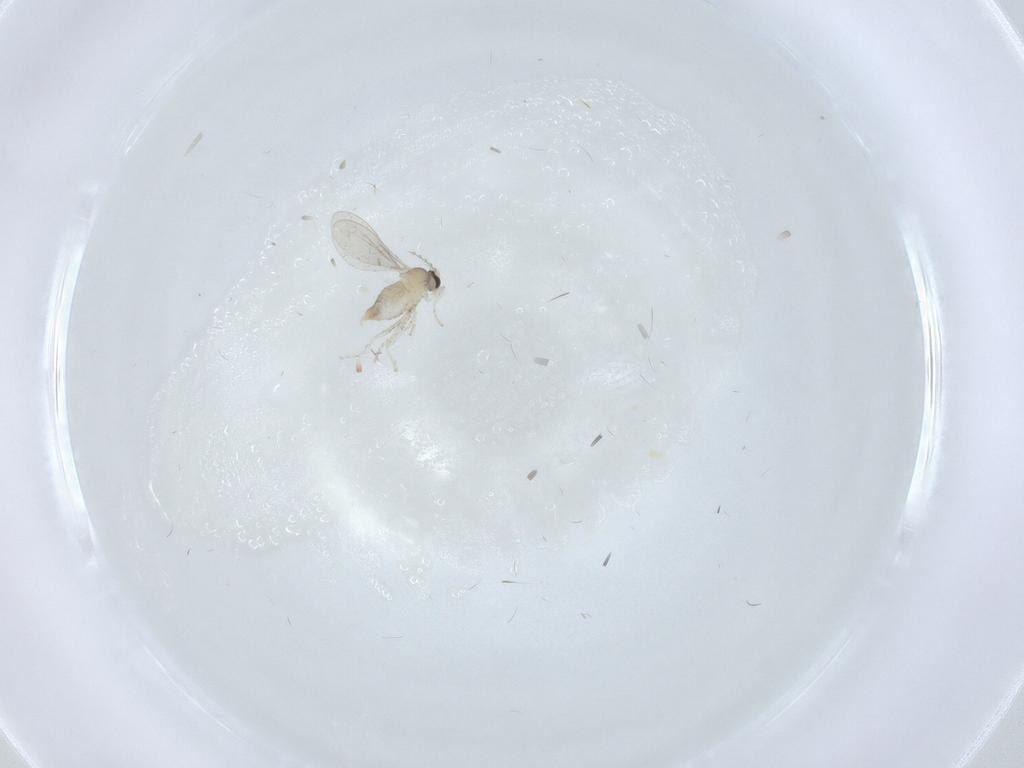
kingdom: Animalia
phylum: Arthropoda
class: Insecta
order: Diptera
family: Cecidomyiidae
